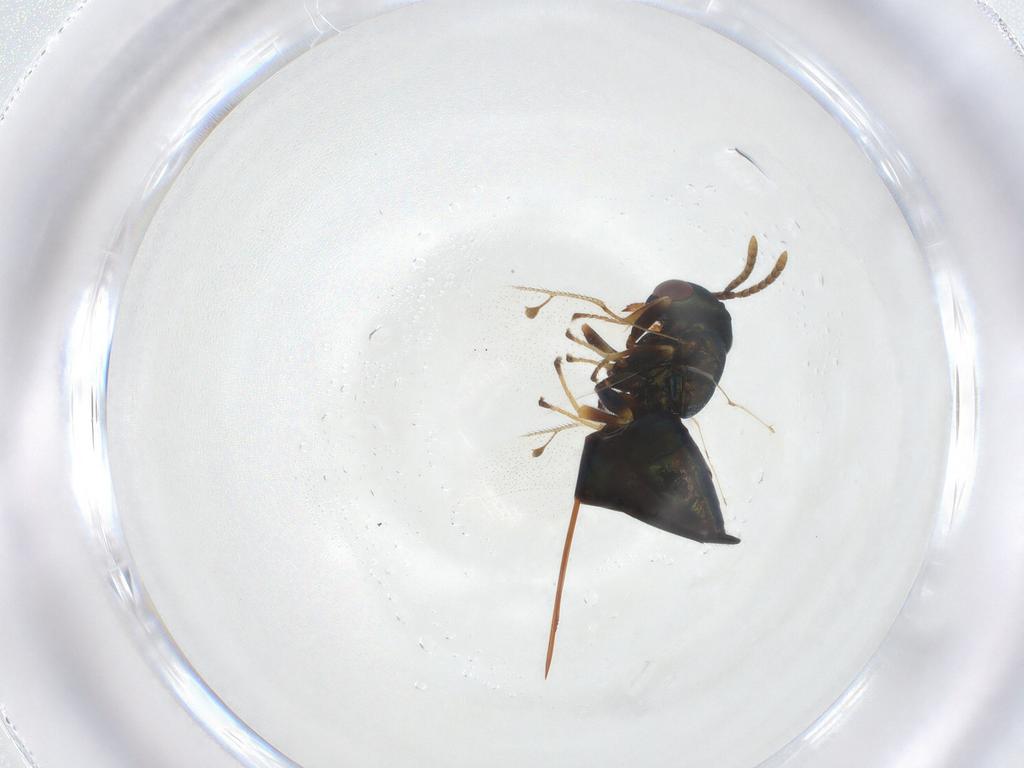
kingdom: Animalia
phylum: Arthropoda
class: Insecta
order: Hymenoptera
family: Pteromalidae
